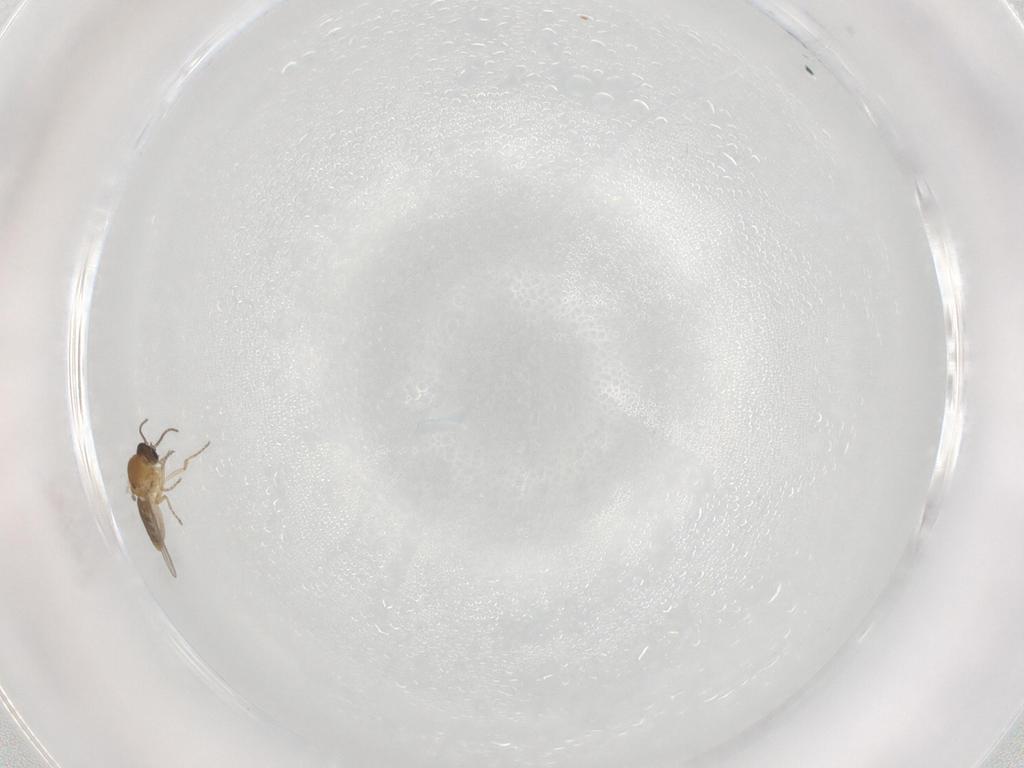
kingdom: Animalia
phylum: Arthropoda
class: Insecta
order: Diptera
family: Ceratopogonidae
